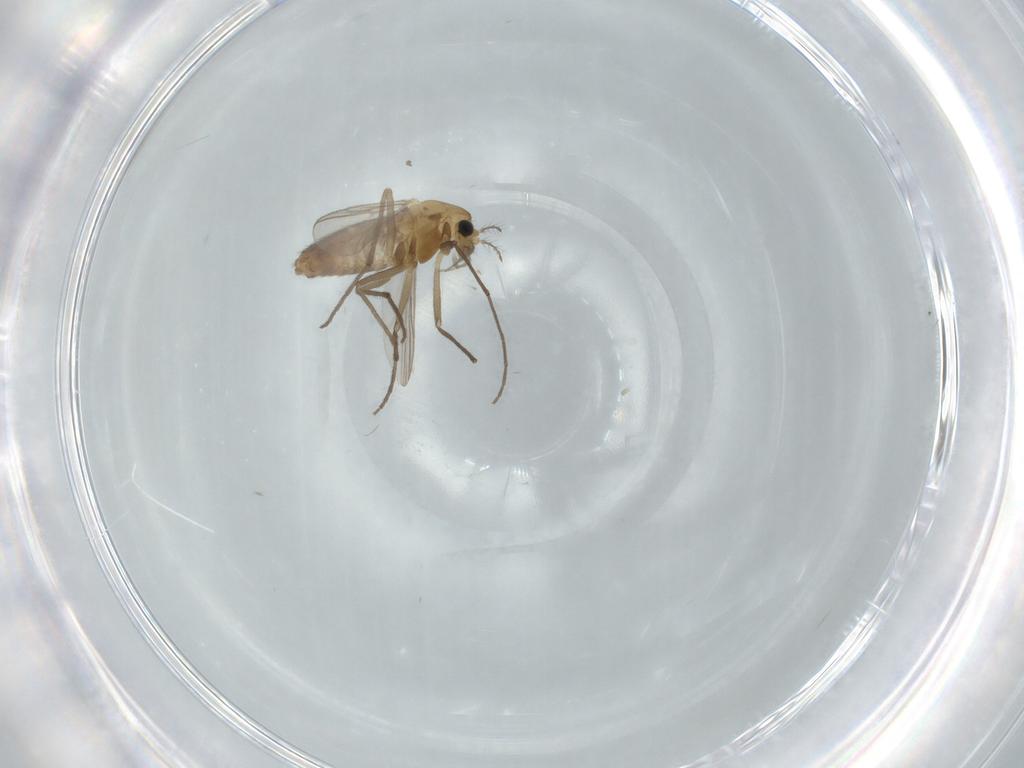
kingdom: Animalia
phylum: Arthropoda
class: Insecta
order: Diptera
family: Chironomidae
